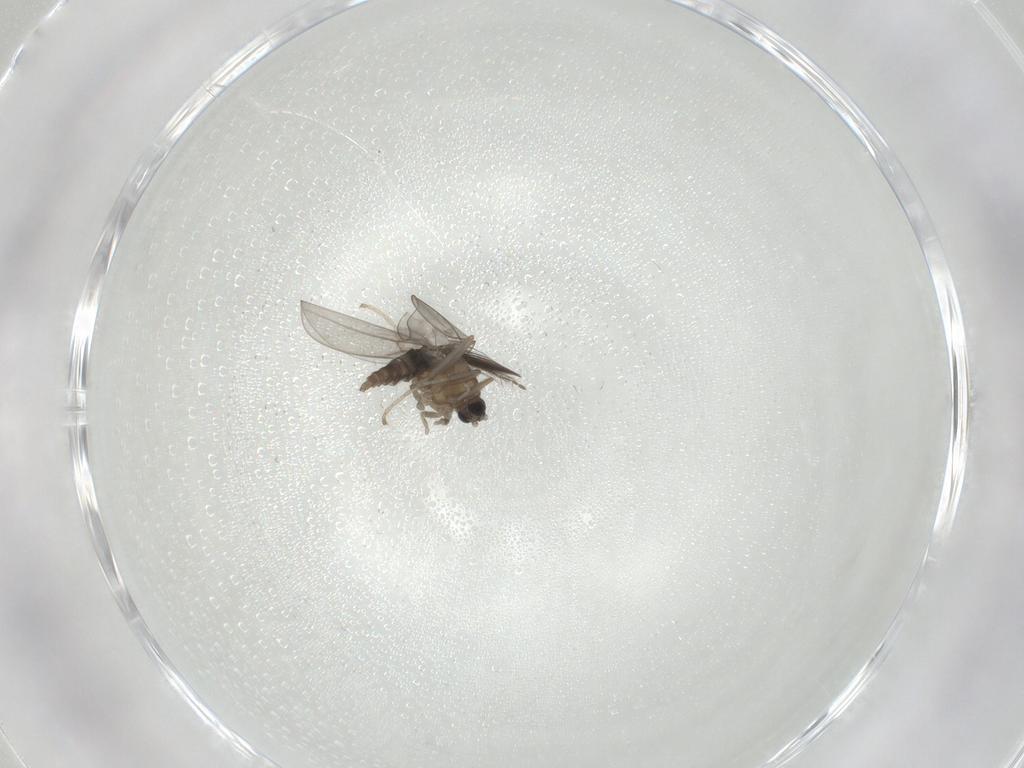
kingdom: Animalia
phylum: Arthropoda
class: Insecta
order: Diptera
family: Cecidomyiidae
